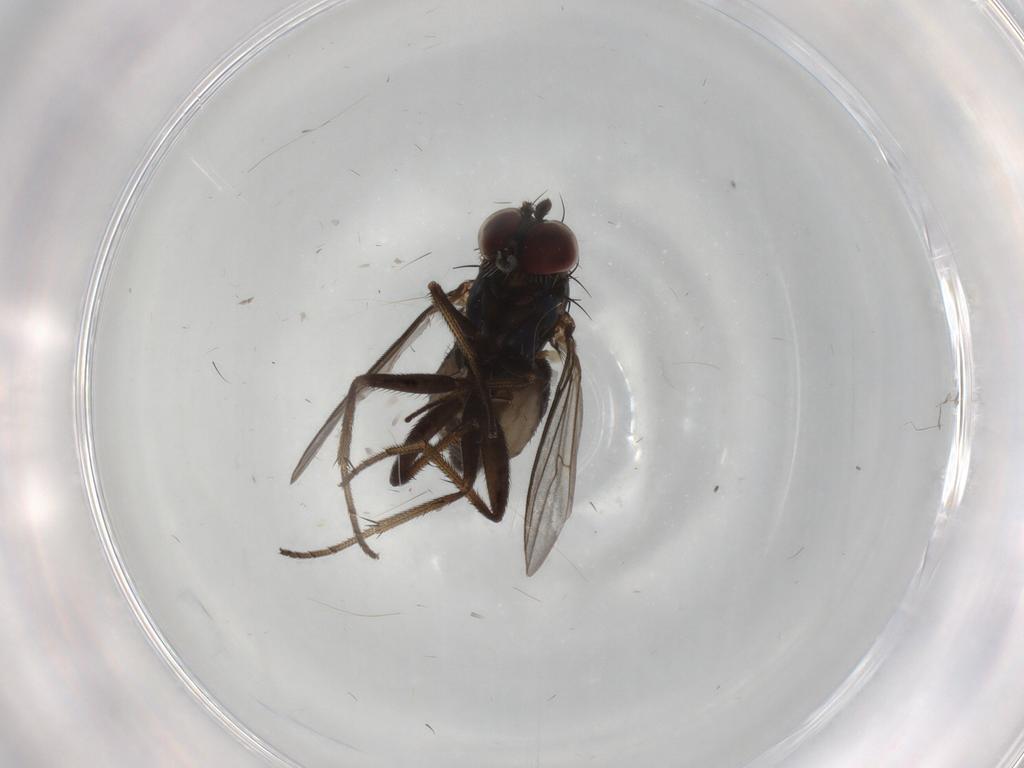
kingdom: Animalia
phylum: Arthropoda
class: Insecta
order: Diptera
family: Dolichopodidae
